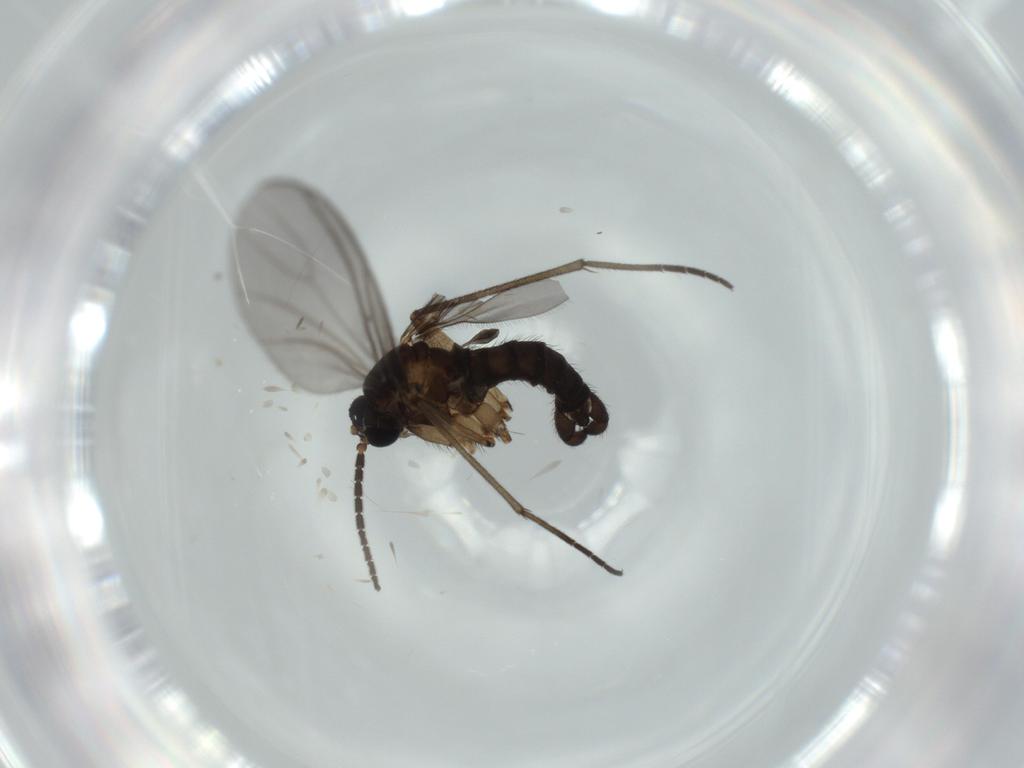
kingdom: Animalia
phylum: Arthropoda
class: Insecta
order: Diptera
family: Sciaridae
